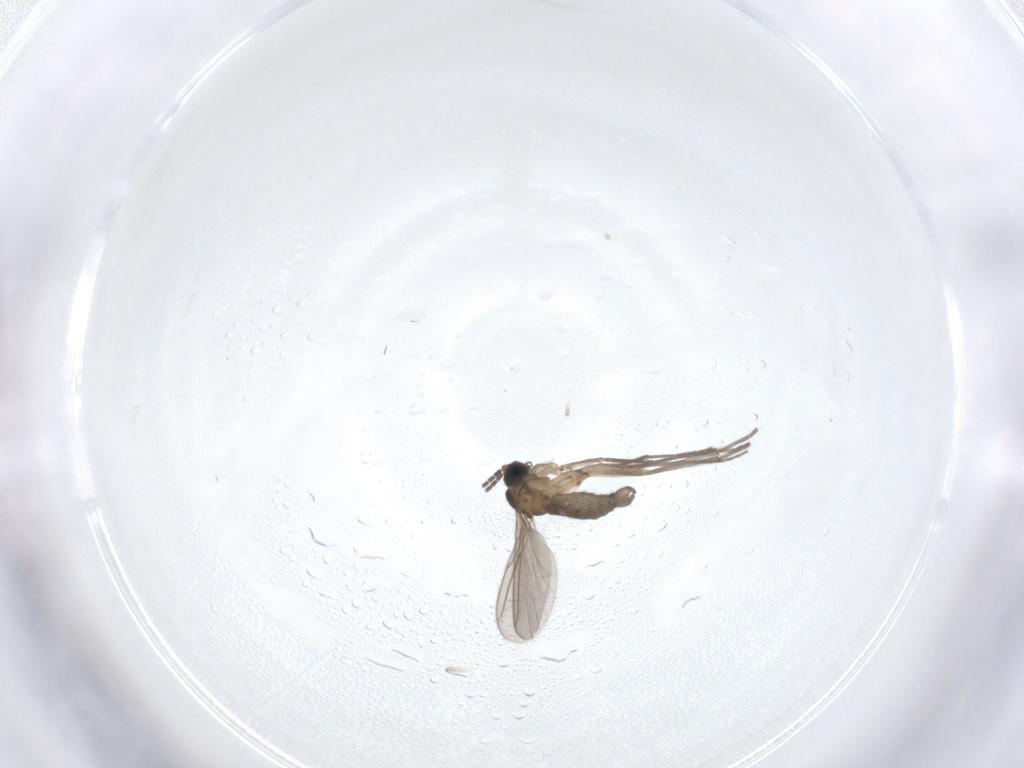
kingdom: Animalia
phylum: Arthropoda
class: Insecta
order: Diptera
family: Sciaridae
